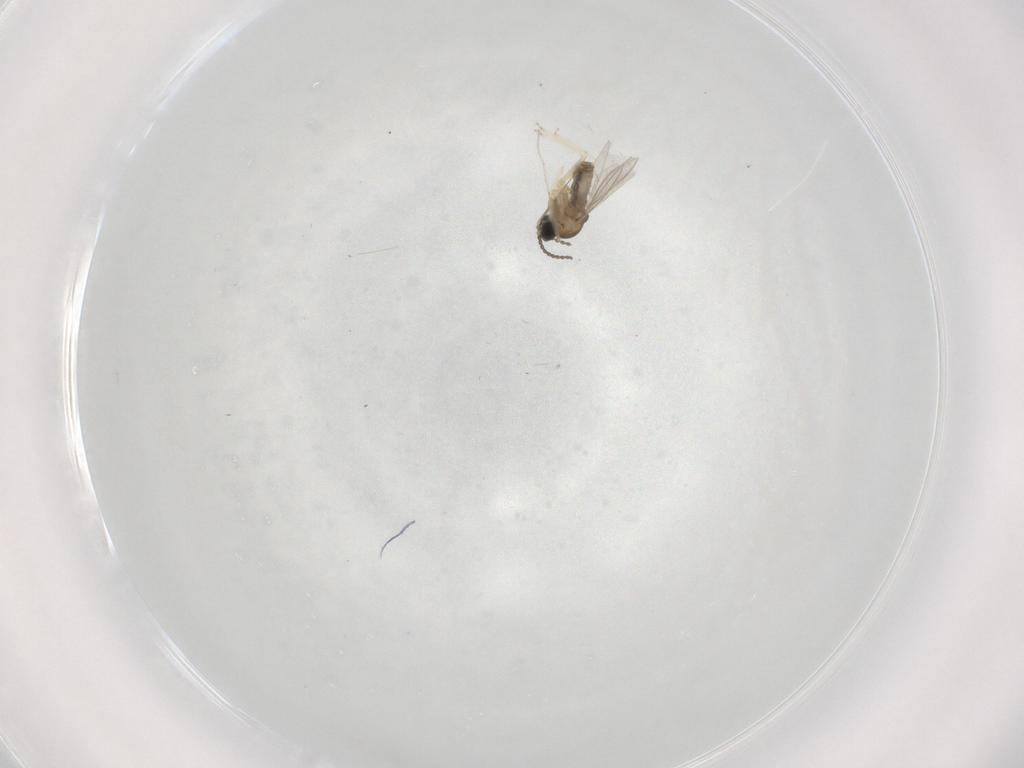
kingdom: Animalia
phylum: Arthropoda
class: Insecta
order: Diptera
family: Cecidomyiidae
